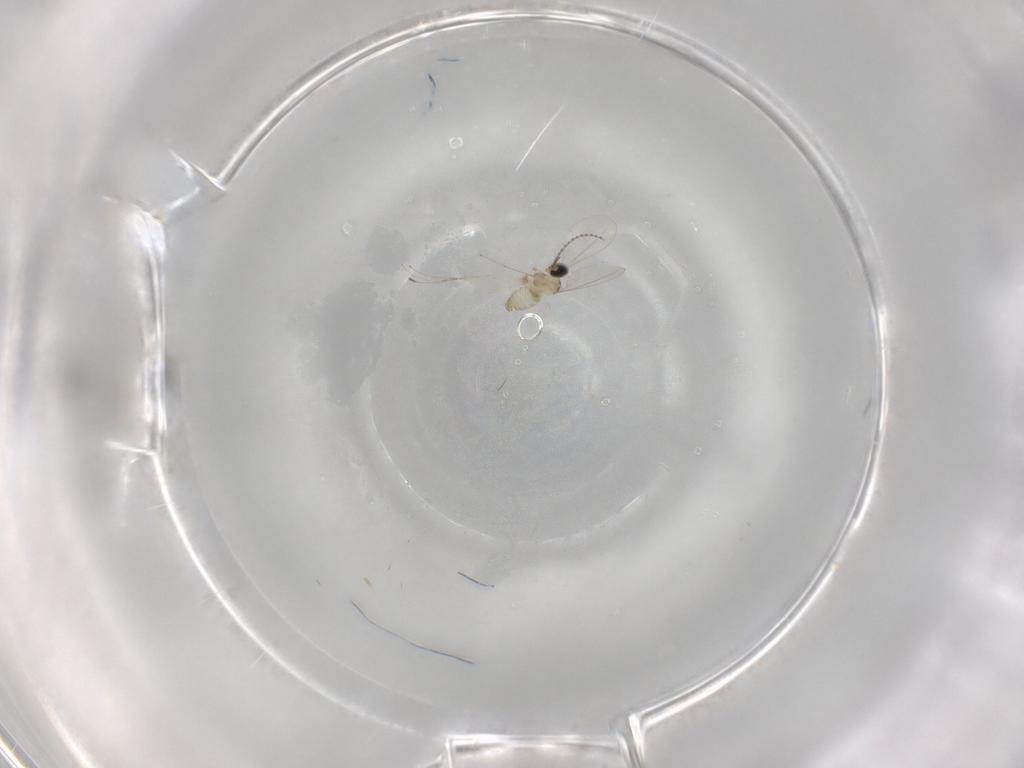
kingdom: Animalia
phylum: Arthropoda
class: Insecta
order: Diptera
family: Cecidomyiidae
